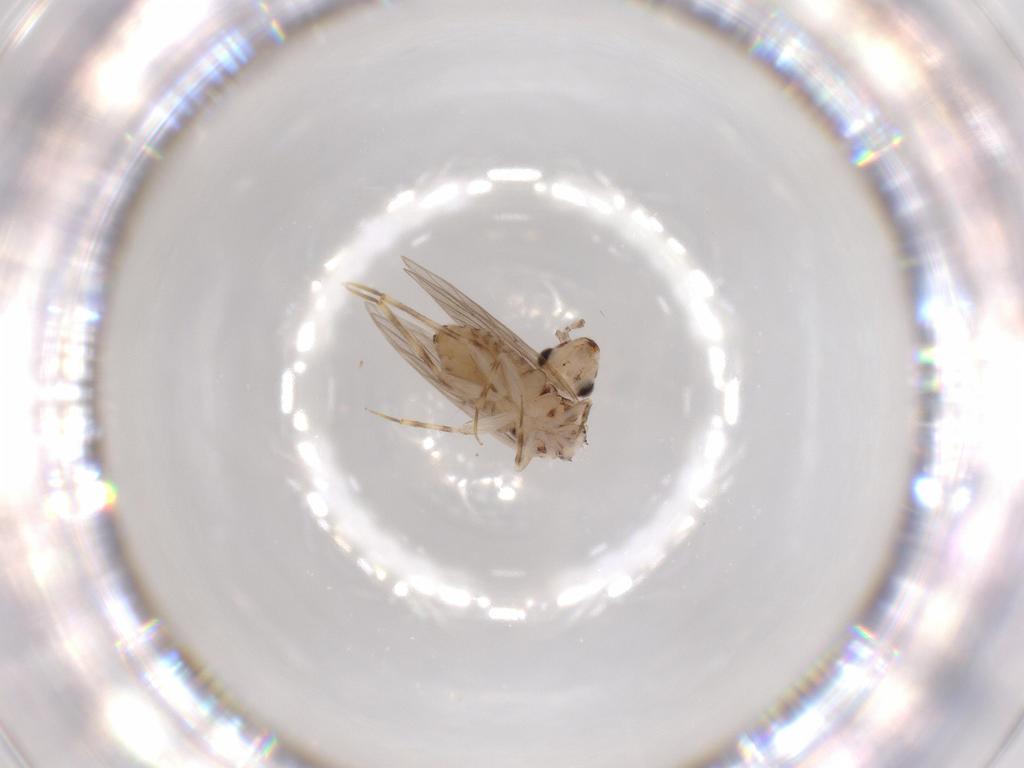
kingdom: Animalia
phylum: Arthropoda
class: Insecta
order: Psocodea
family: Lepidopsocidae
